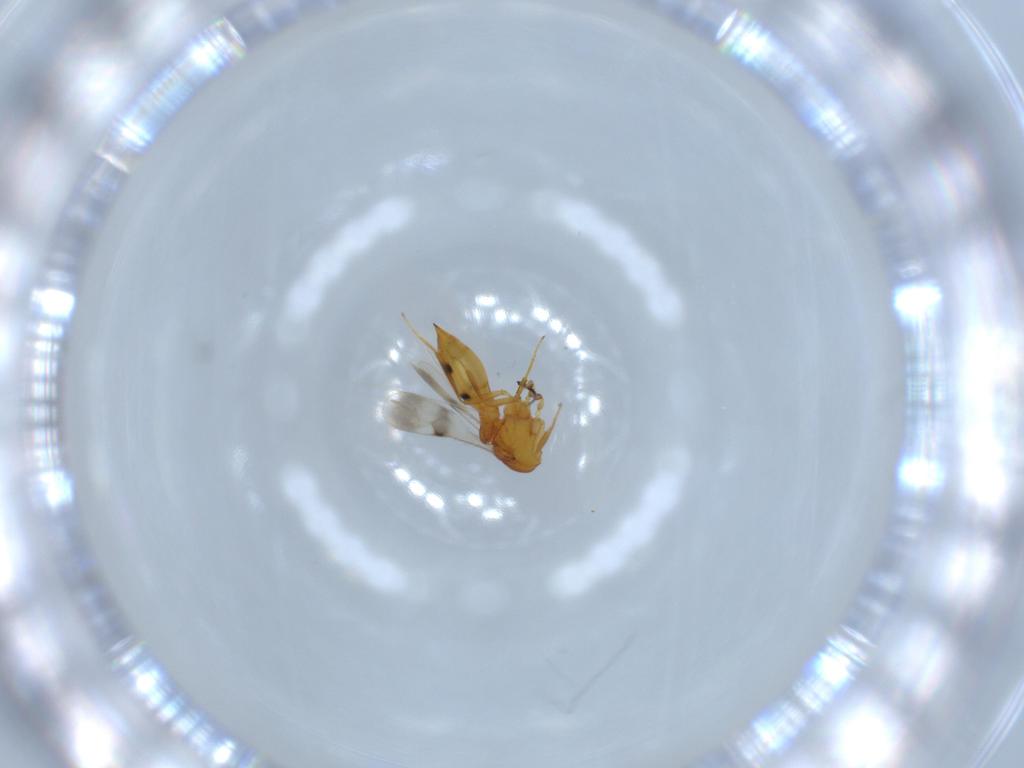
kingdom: Animalia
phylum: Arthropoda
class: Insecta
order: Hymenoptera
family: Scelionidae
